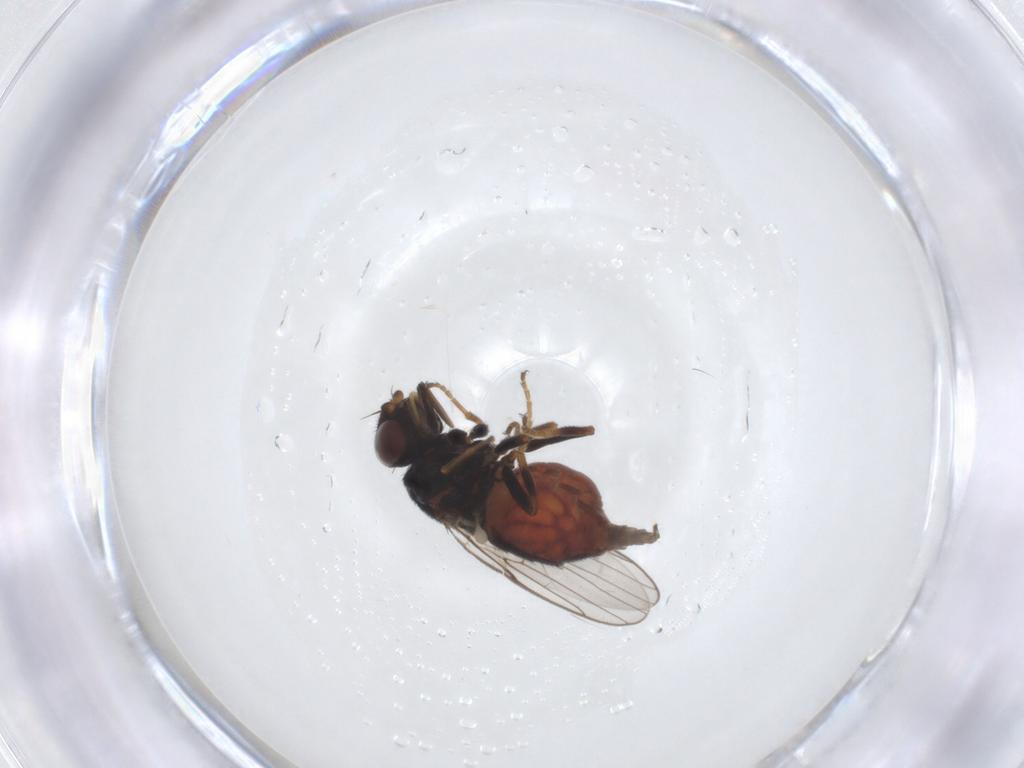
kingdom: Animalia
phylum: Arthropoda
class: Insecta
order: Diptera
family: Chloropidae
